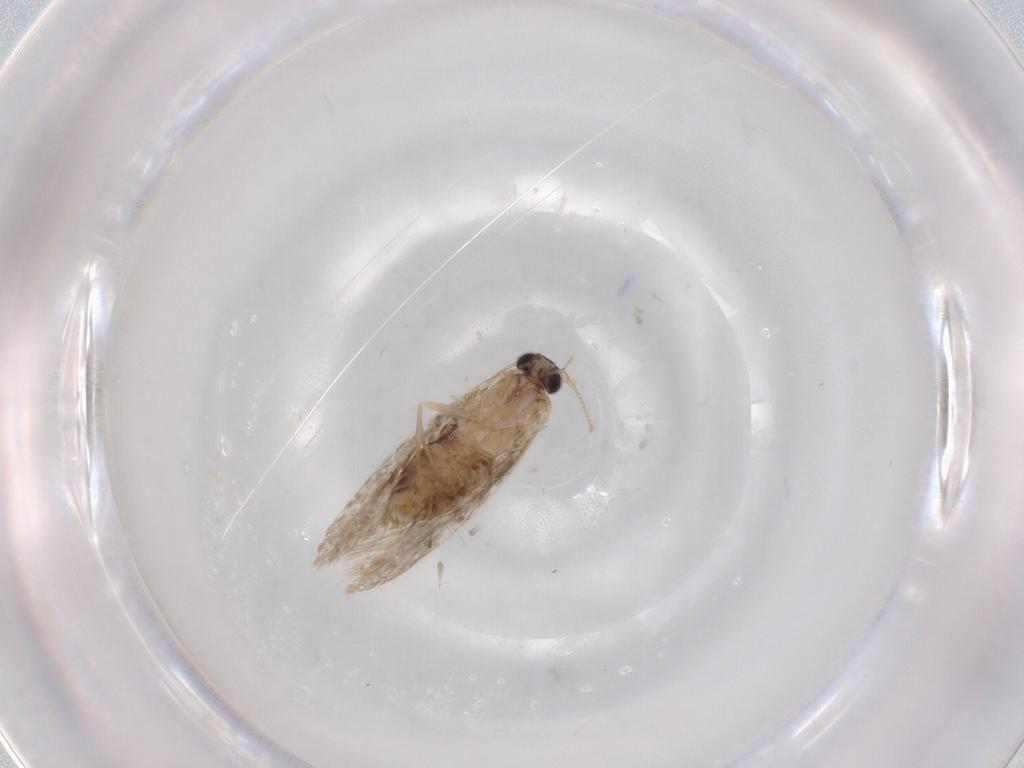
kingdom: Animalia
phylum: Arthropoda
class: Insecta
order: Lepidoptera
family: Tineidae
